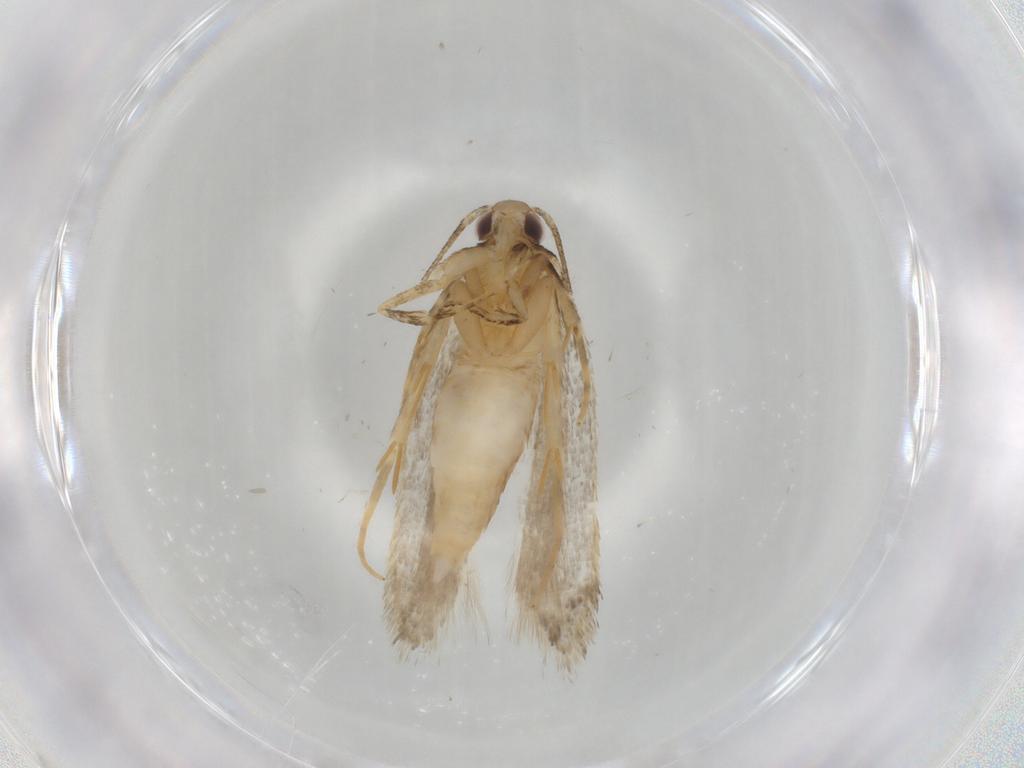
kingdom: Animalia
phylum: Arthropoda
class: Insecta
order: Lepidoptera
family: Autostichidae
